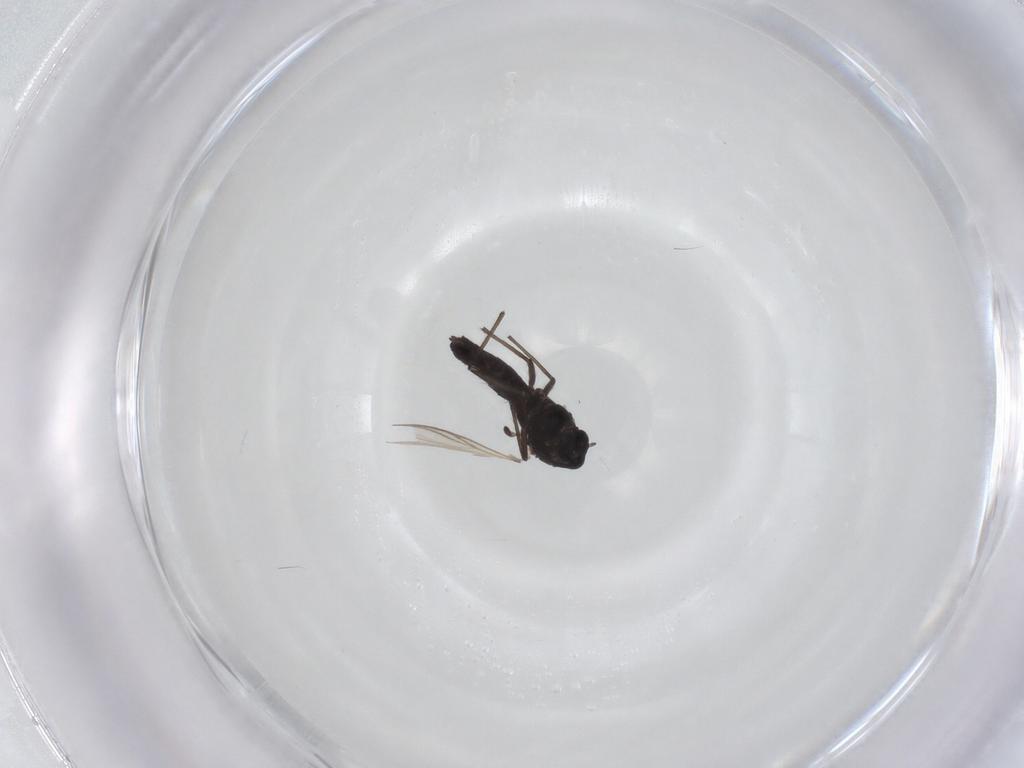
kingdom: Animalia
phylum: Arthropoda
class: Insecta
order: Diptera
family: Chironomidae
